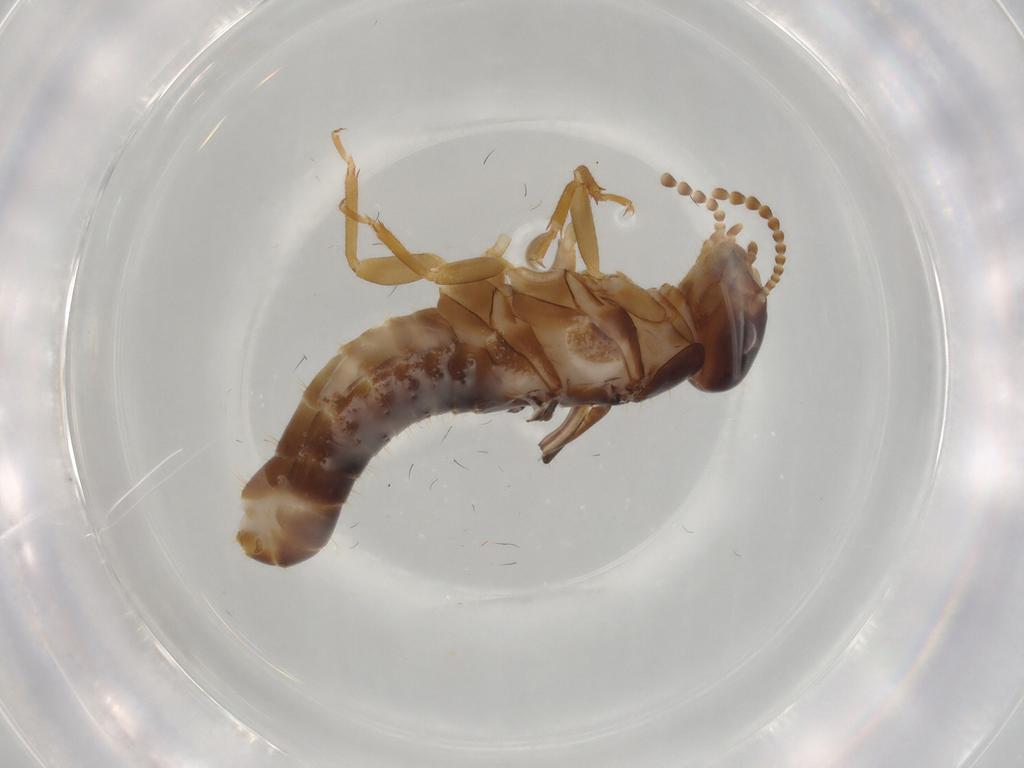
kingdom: Animalia
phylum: Arthropoda
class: Insecta
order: Blattodea
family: Kalotermitidae
